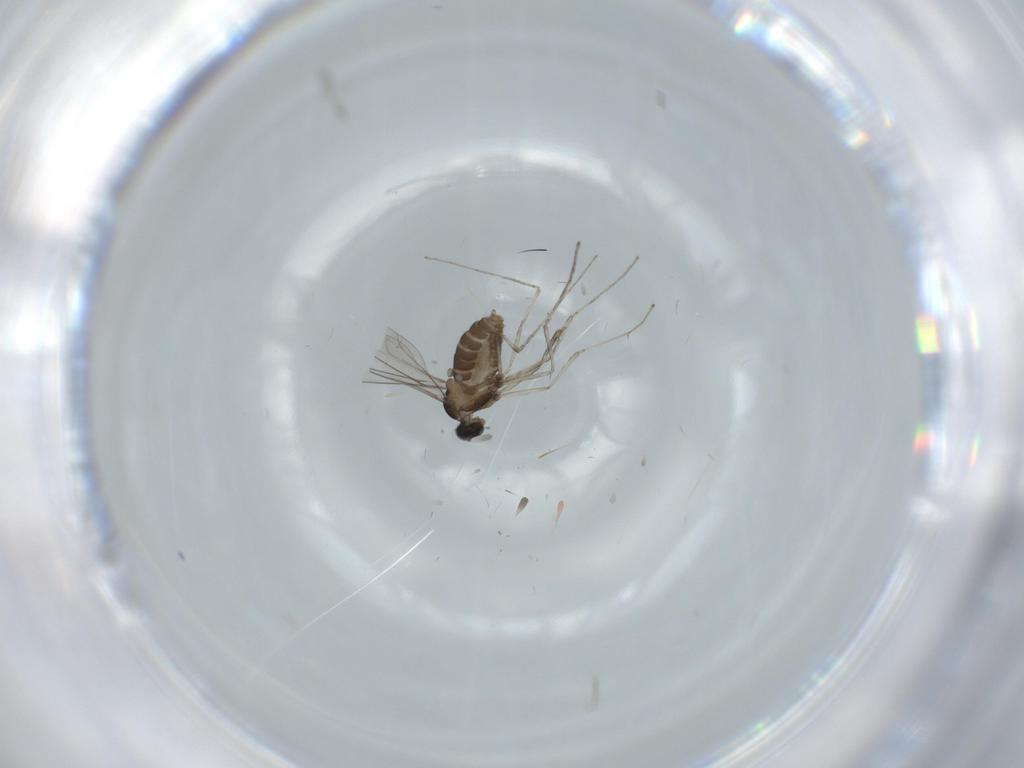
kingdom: Animalia
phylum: Arthropoda
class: Insecta
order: Diptera
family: Cecidomyiidae
